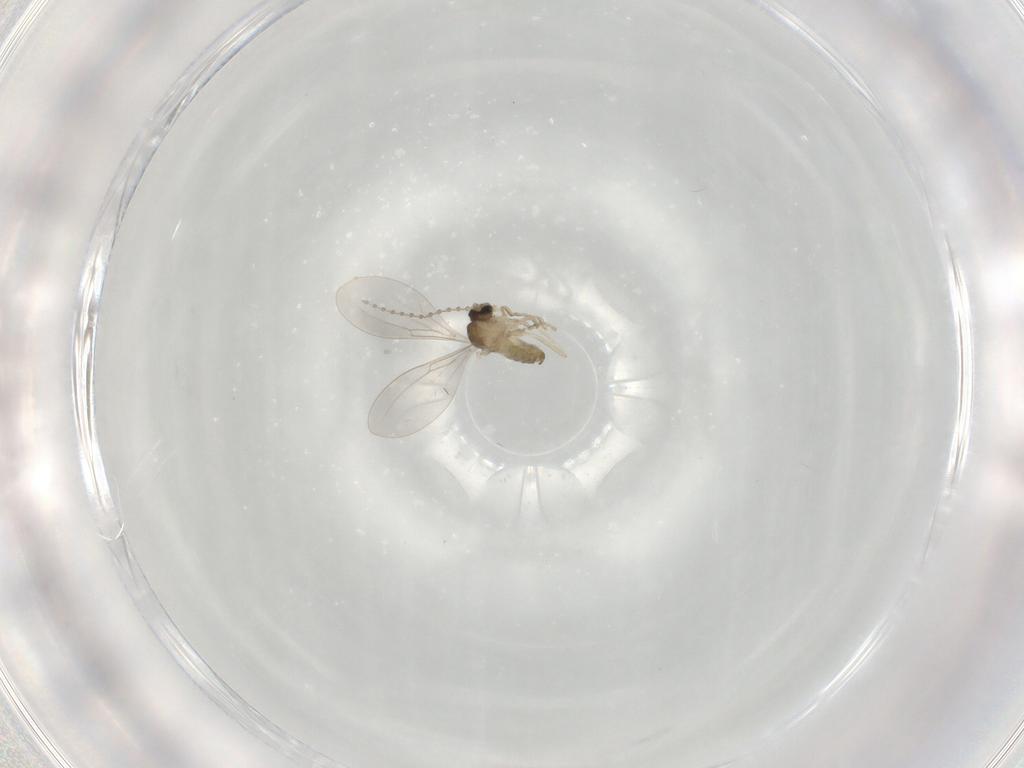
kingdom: Animalia
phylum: Arthropoda
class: Insecta
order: Diptera
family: Cecidomyiidae
